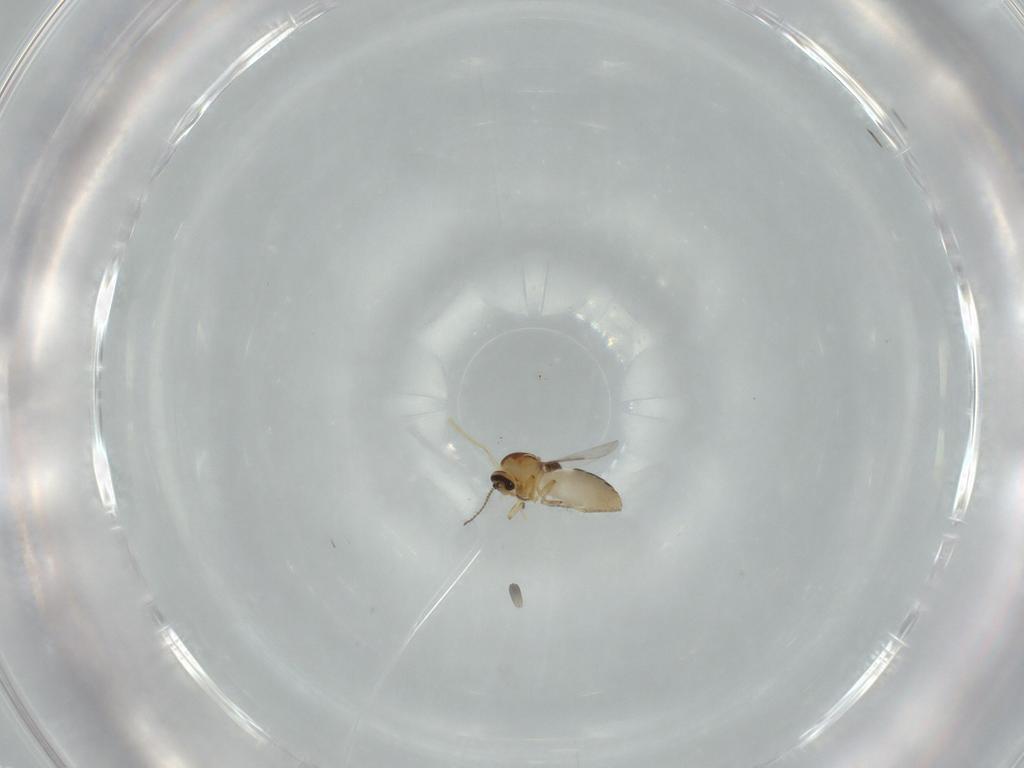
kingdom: Animalia
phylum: Arthropoda
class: Insecta
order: Diptera
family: Ceratopogonidae
